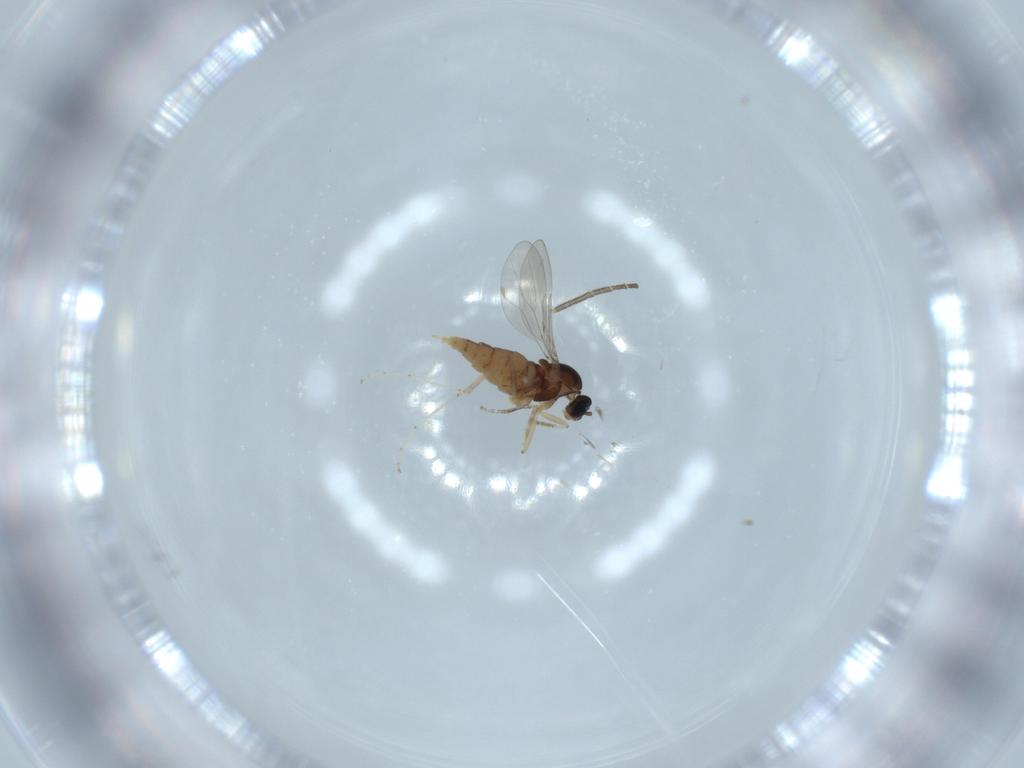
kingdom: Animalia
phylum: Arthropoda
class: Insecta
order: Diptera
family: Cecidomyiidae
